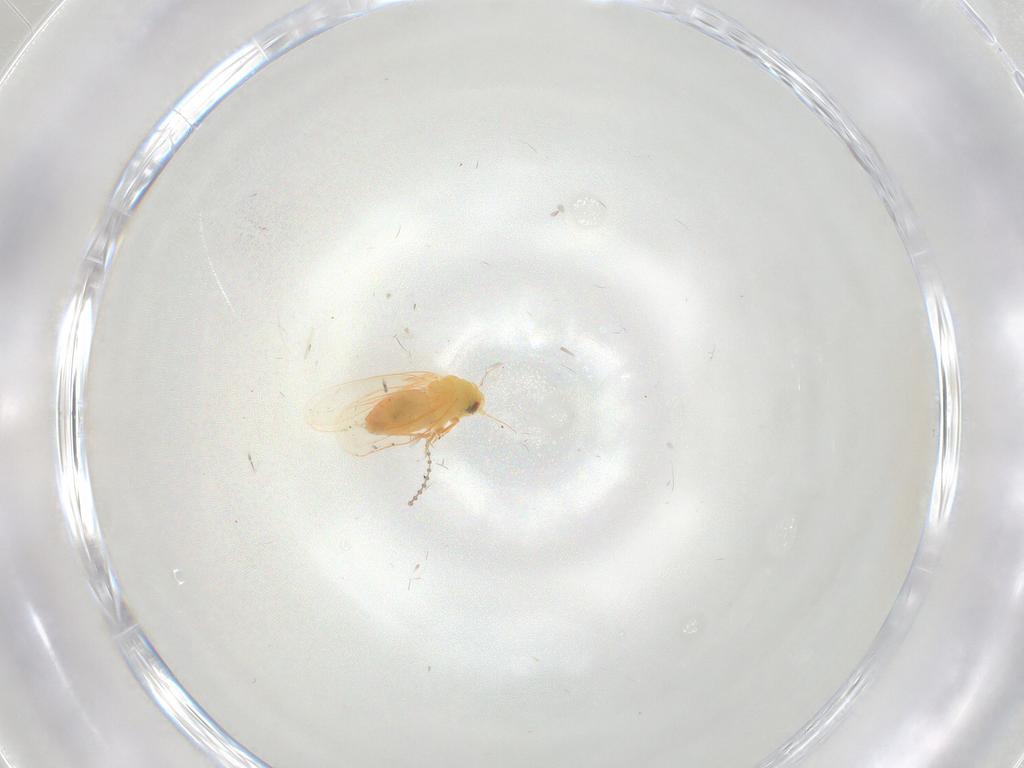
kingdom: Animalia
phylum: Arthropoda
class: Insecta
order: Hemiptera
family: Aleyrodidae
